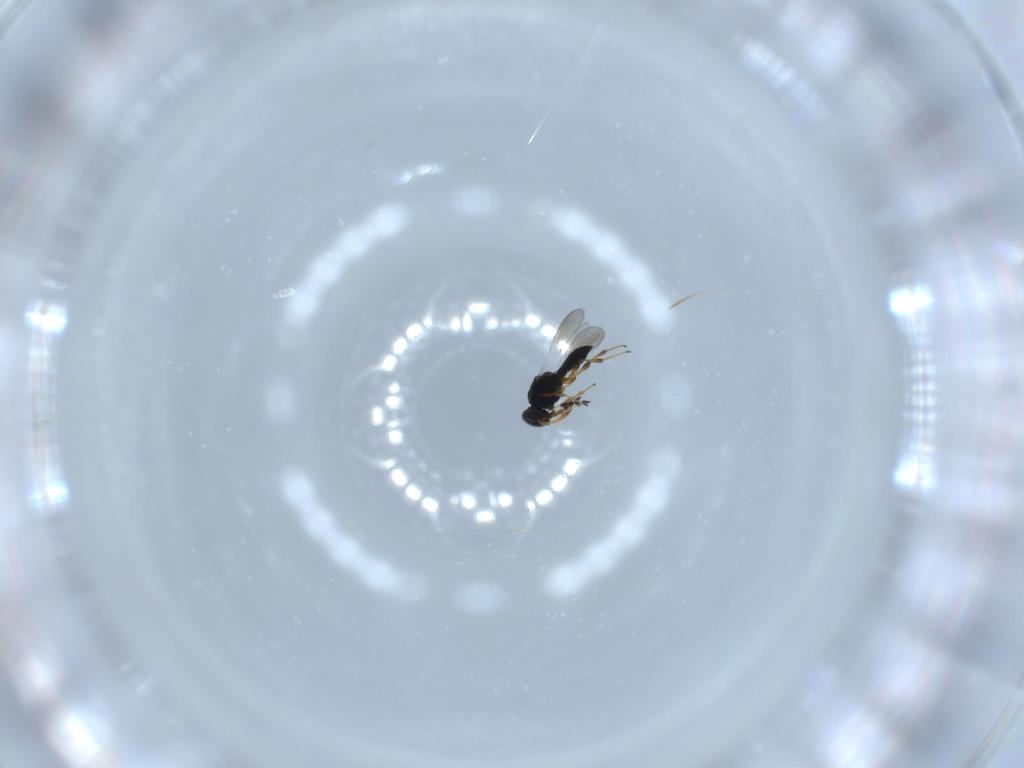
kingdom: Animalia
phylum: Arthropoda
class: Insecta
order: Hymenoptera
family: Platygastridae
